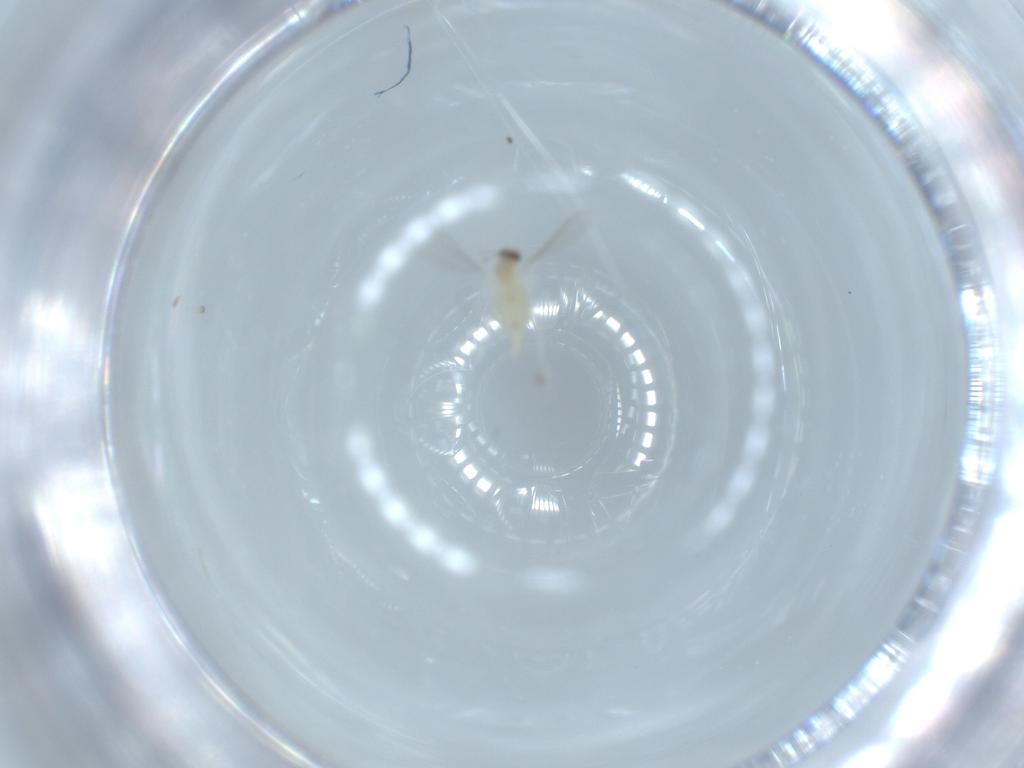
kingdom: Animalia
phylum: Arthropoda
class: Insecta
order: Diptera
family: Cecidomyiidae
